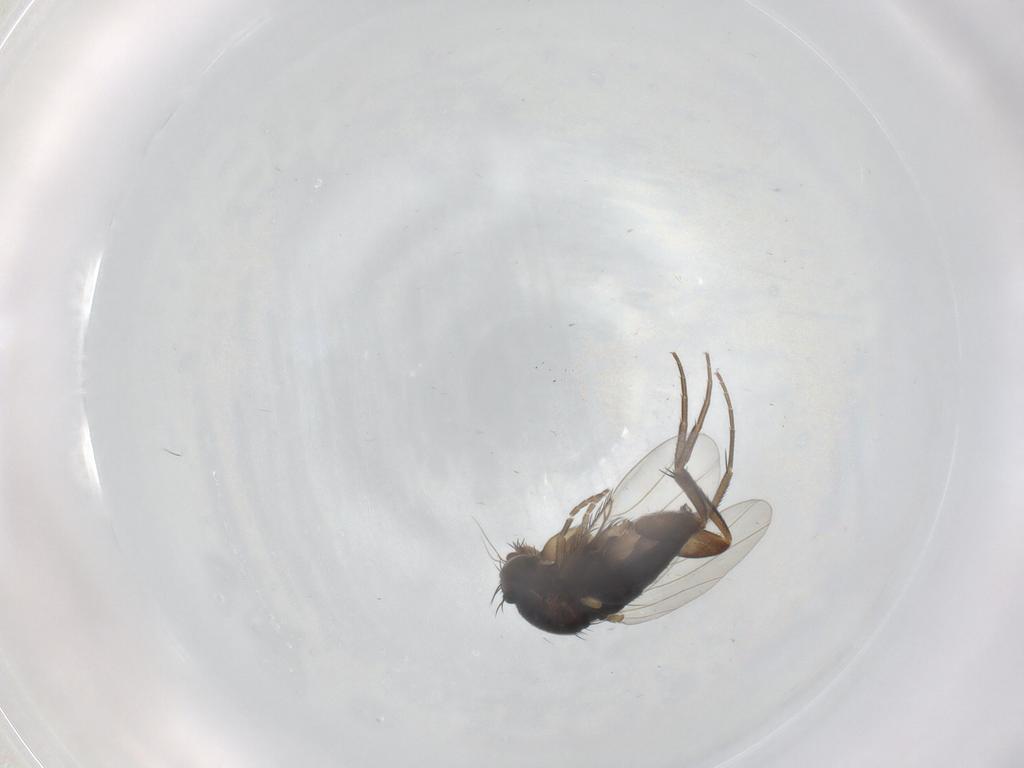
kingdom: Animalia
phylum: Arthropoda
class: Insecta
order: Diptera
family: Phoridae
